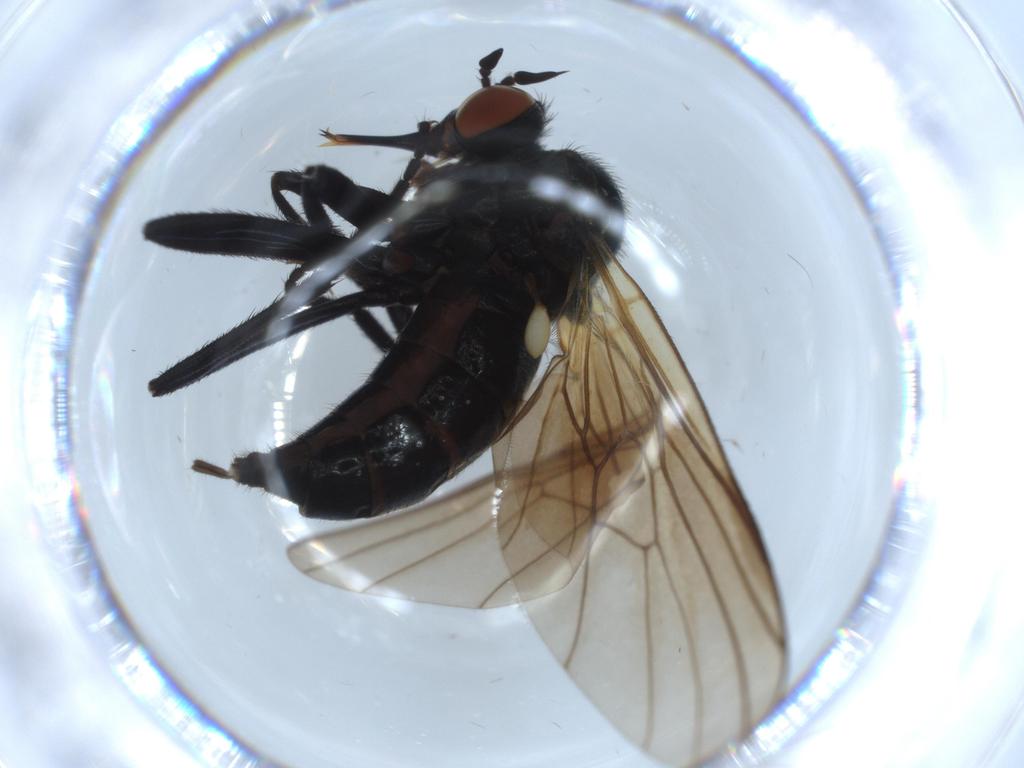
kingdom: Animalia
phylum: Arthropoda
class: Insecta
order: Diptera
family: Empididae
